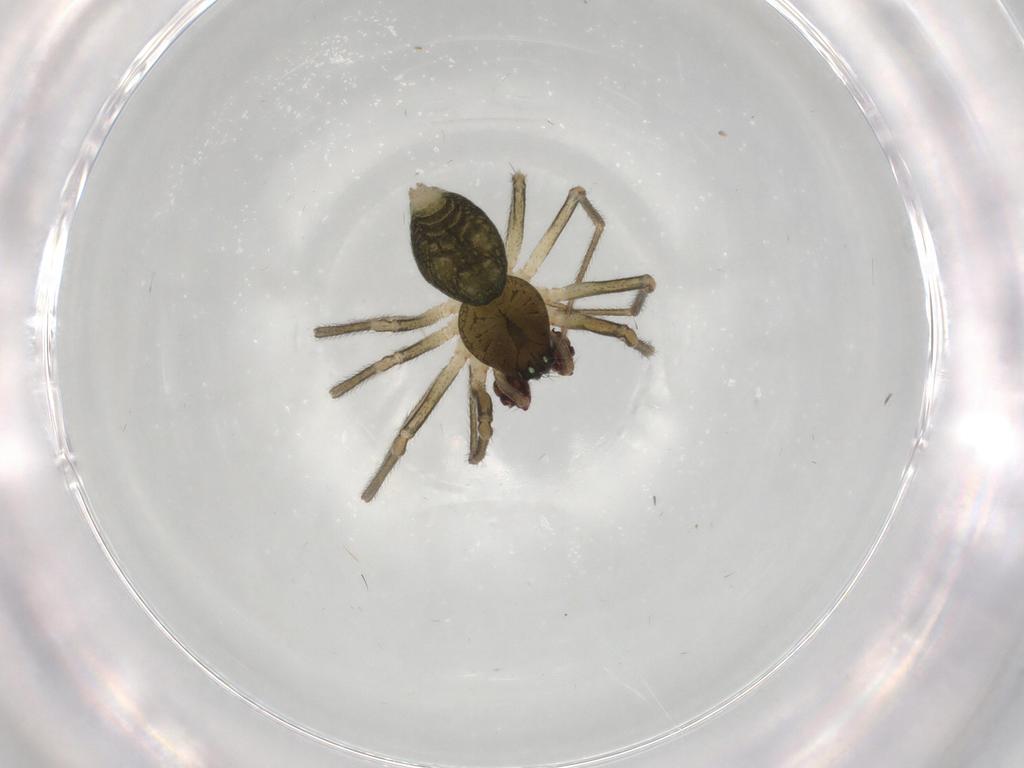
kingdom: Animalia
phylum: Arthropoda
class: Arachnida
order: Araneae
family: Linyphiidae
